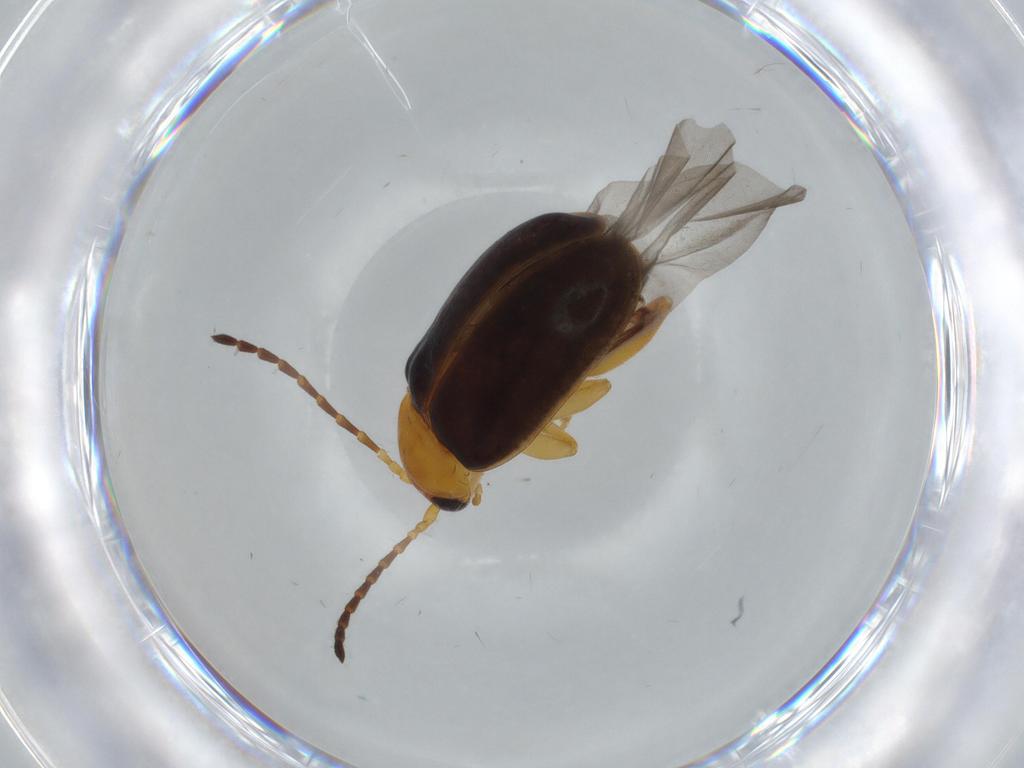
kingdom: Animalia
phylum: Arthropoda
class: Insecta
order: Coleoptera
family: Chrysomelidae
